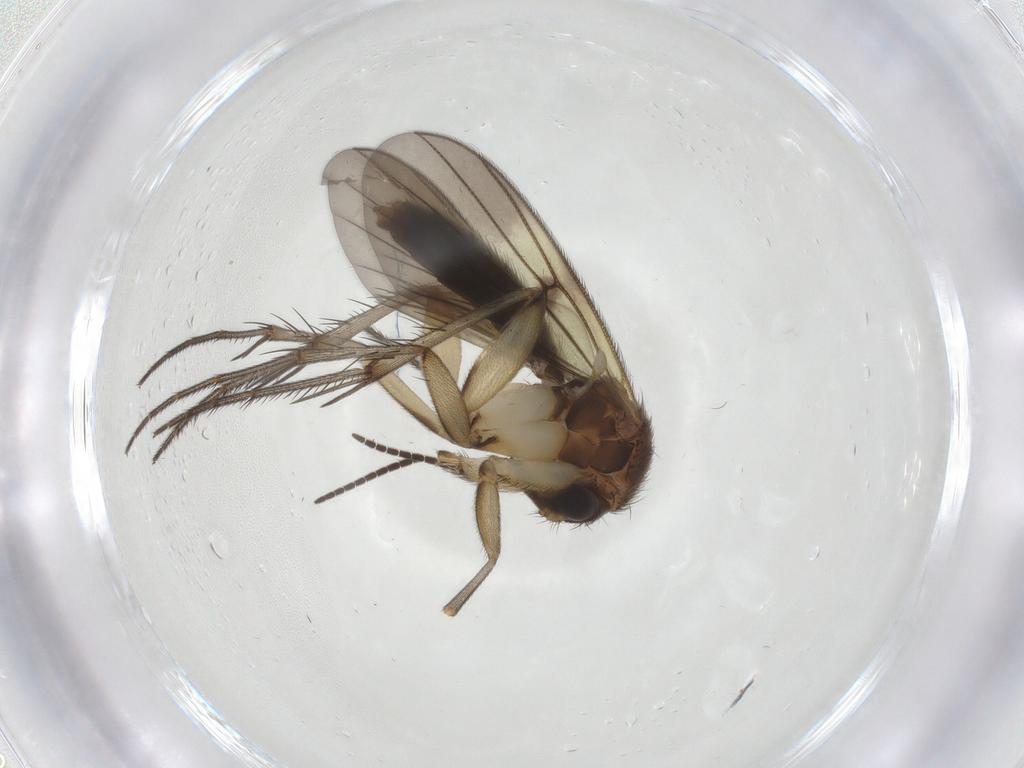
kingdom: Animalia
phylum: Arthropoda
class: Insecta
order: Diptera
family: Mycetophilidae
